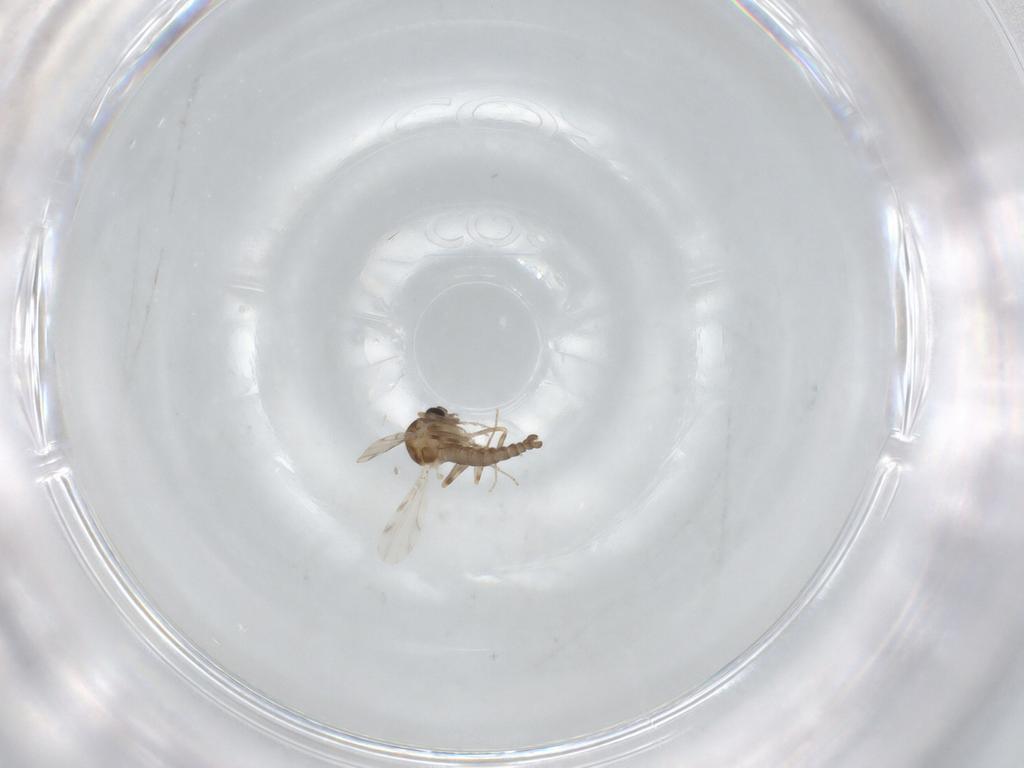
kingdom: Animalia
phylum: Arthropoda
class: Insecta
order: Diptera
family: Ceratopogonidae
